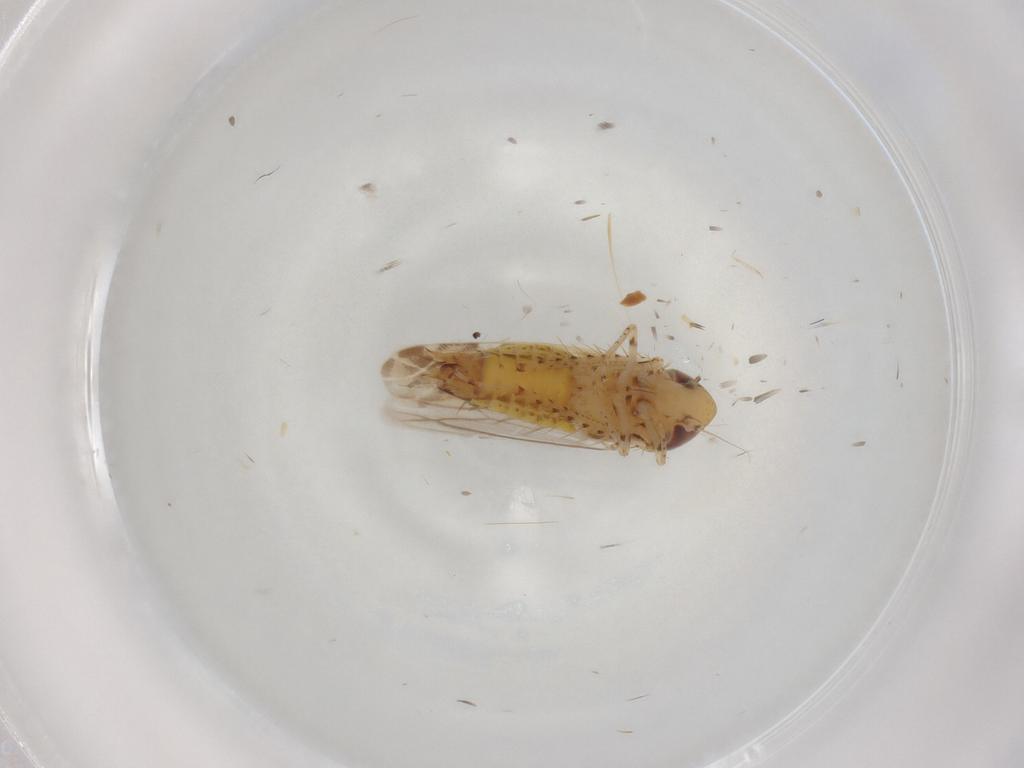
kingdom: Animalia
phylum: Arthropoda
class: Insecta
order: Hemiptera
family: Cicadellidae
